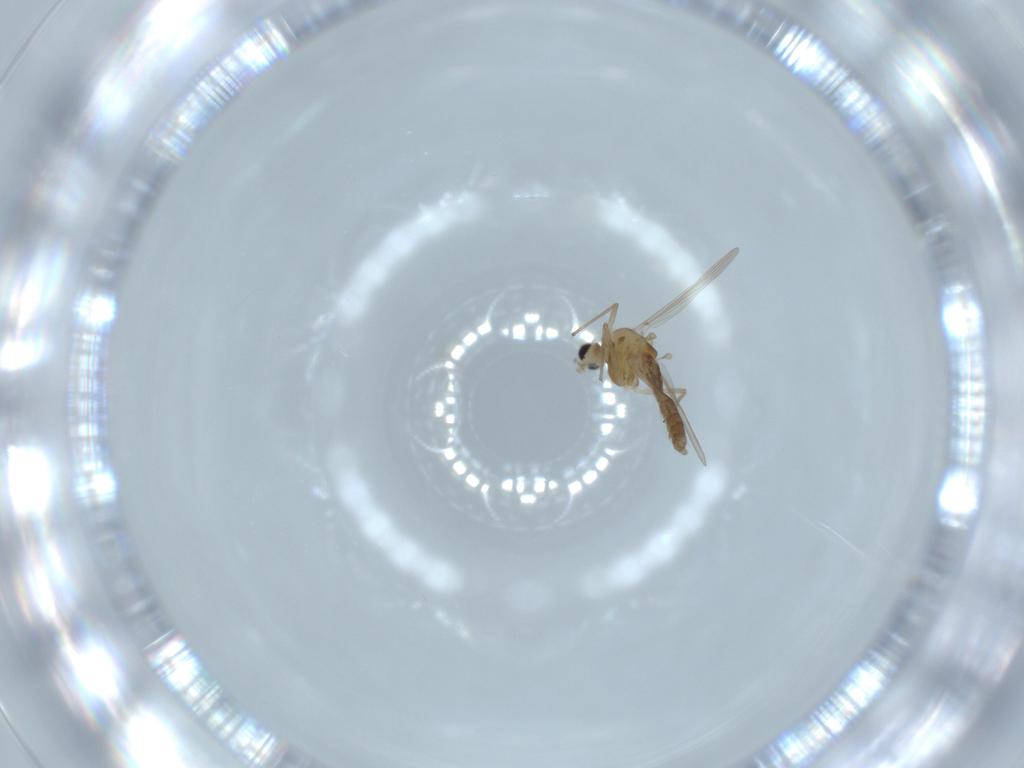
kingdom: Animalia
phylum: Arthropoda
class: Insecta
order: Diptera
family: Chironomidae
